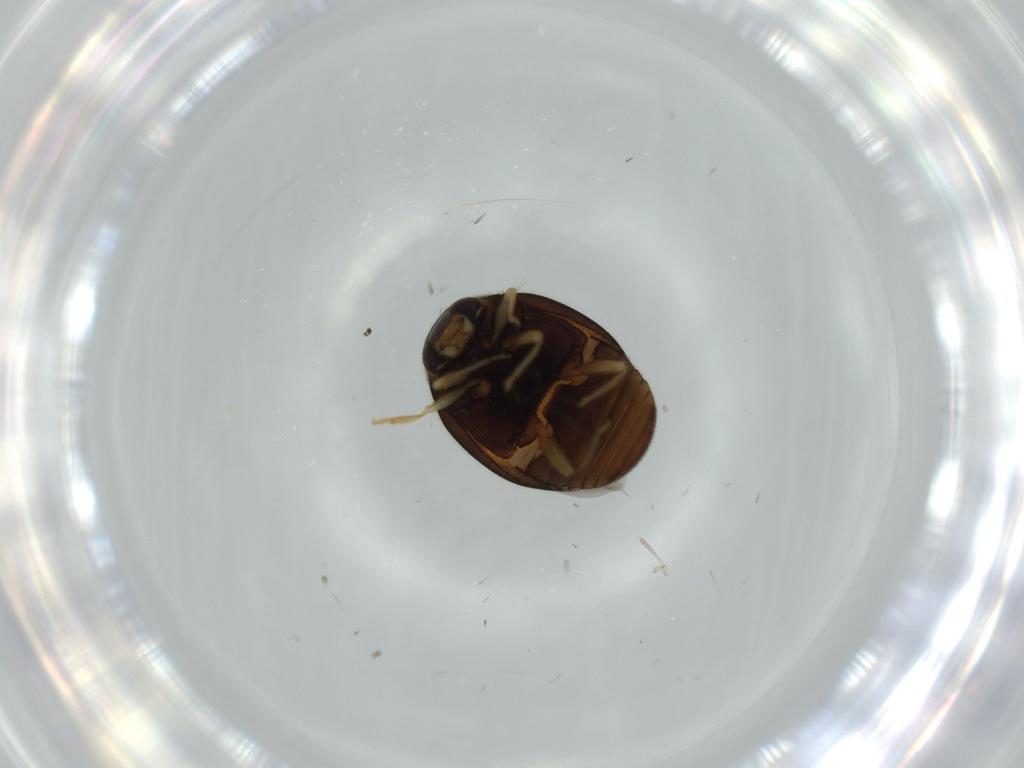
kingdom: Animalia
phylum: Arthropoda
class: Insecta
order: Coleoptera
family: Coccinellidae
